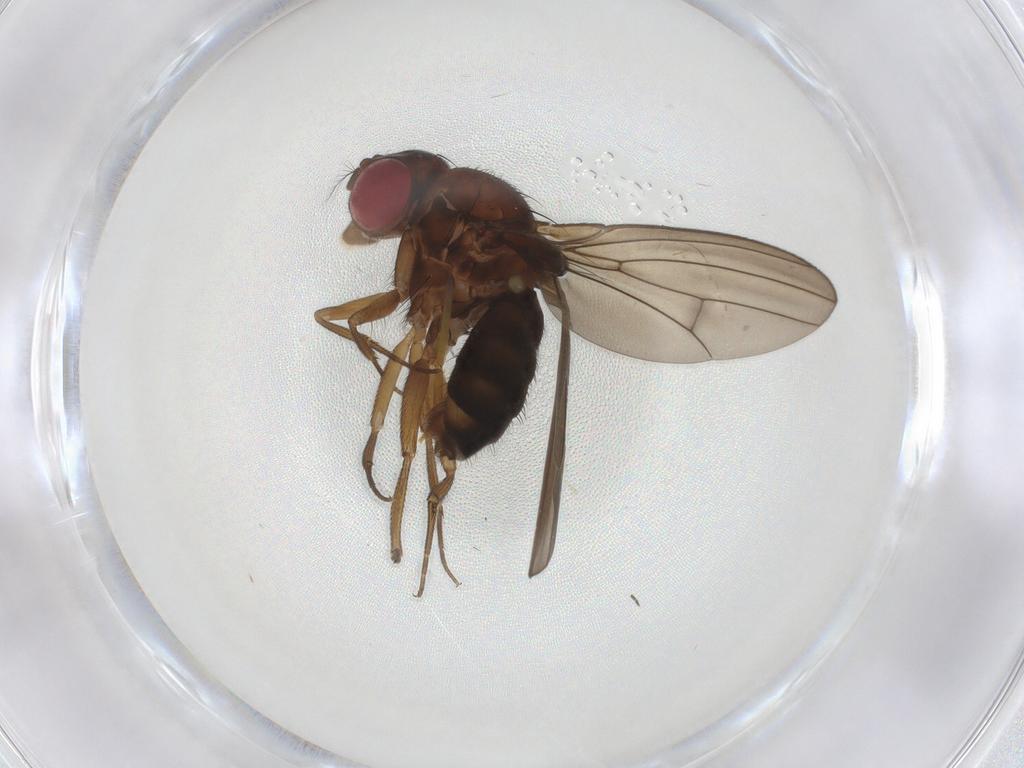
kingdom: Animalia
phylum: Arthropoda
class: Insecta
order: Diptera
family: Drosophilidae
